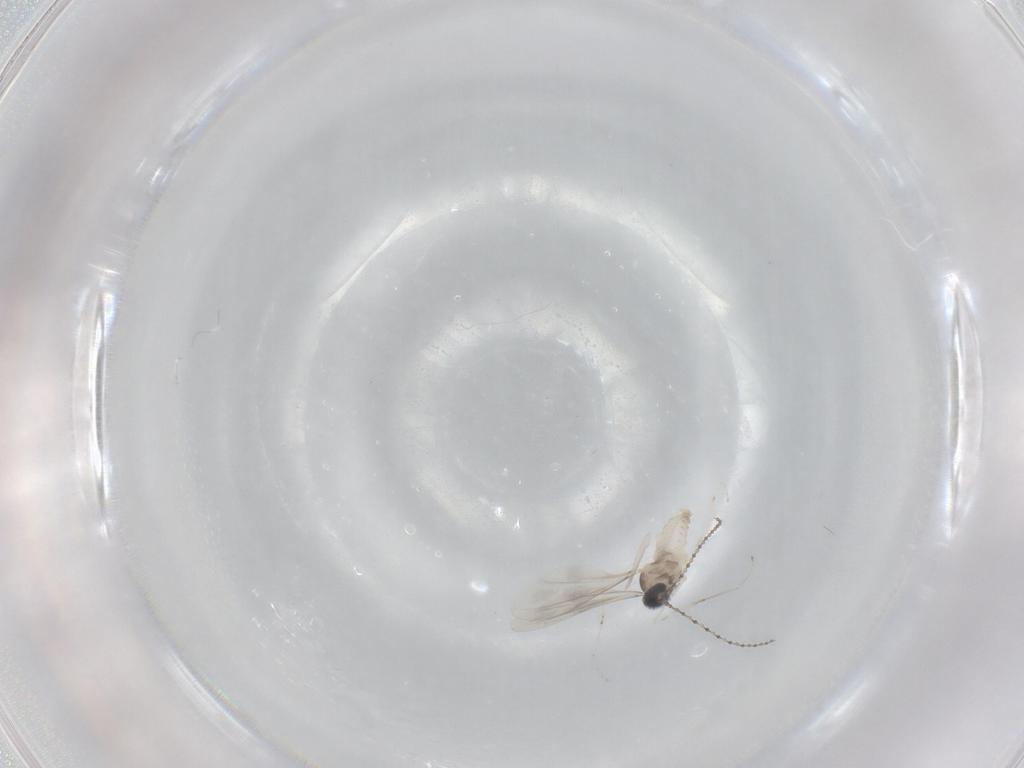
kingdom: Animalia
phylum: Arthropoda
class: Insecta
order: Diptera
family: Cecidomyiidae
